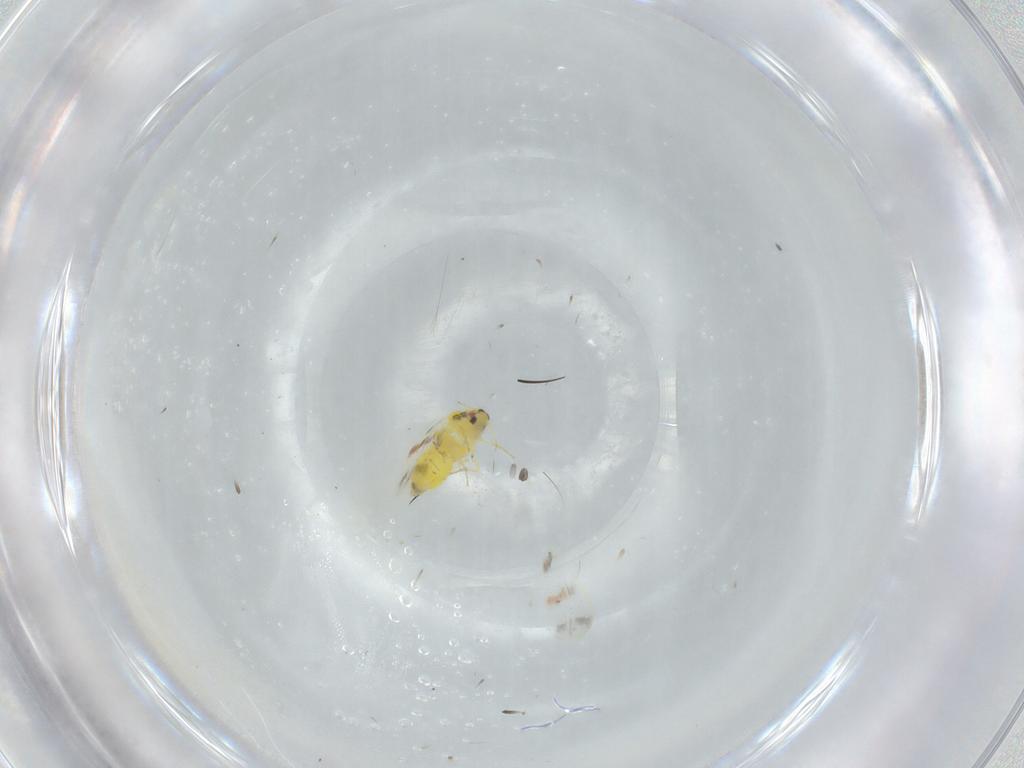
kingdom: Animalia
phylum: Arthropoda
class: Insecta
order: Hemiptera
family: Aleyrodidae
